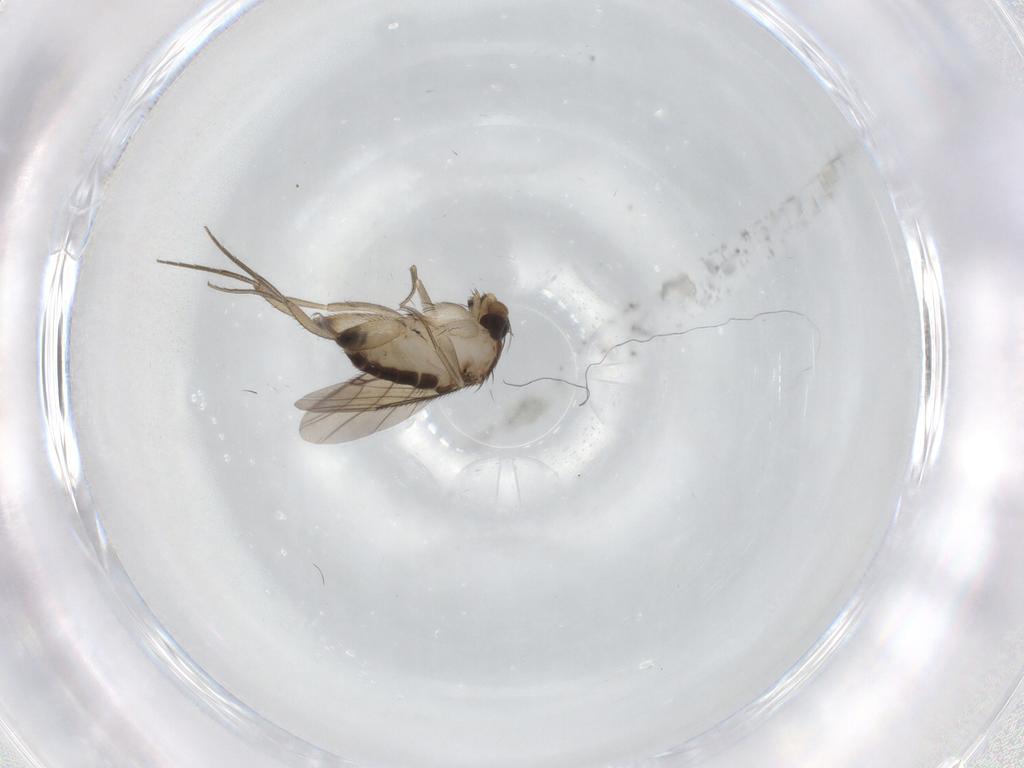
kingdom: Animalia
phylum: Arthropoda
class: Insecta
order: Diptera
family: Phoridae
